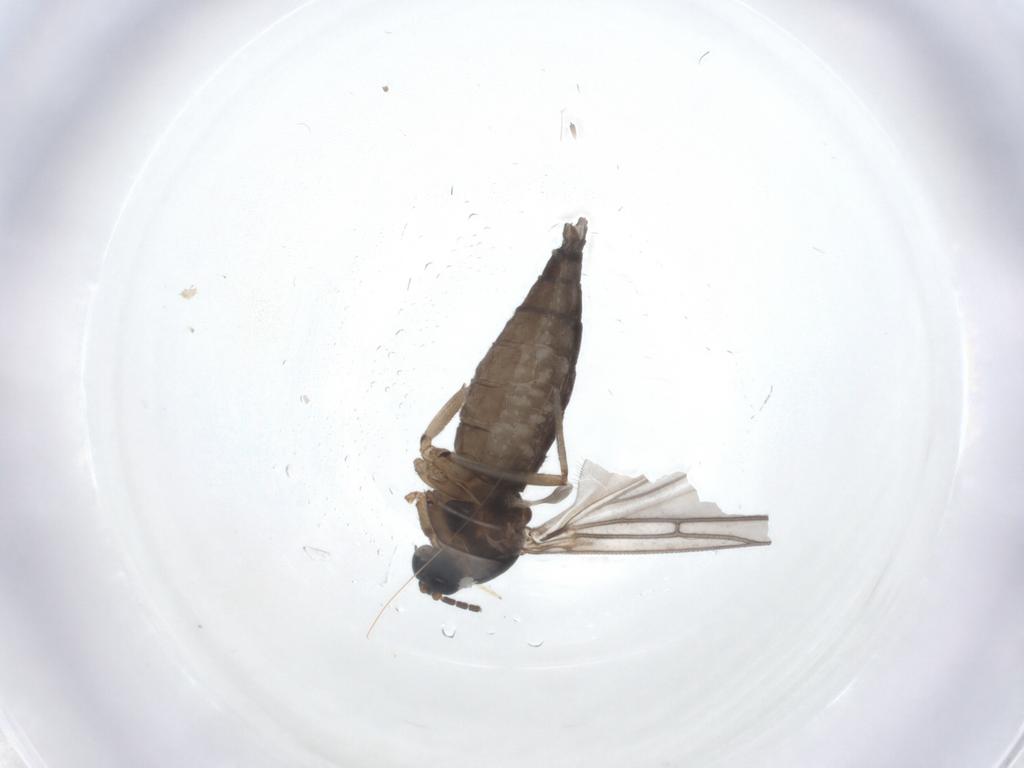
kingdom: Animalia
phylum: Arthropoda
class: Insecta
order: Diptera
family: Sciaridae
